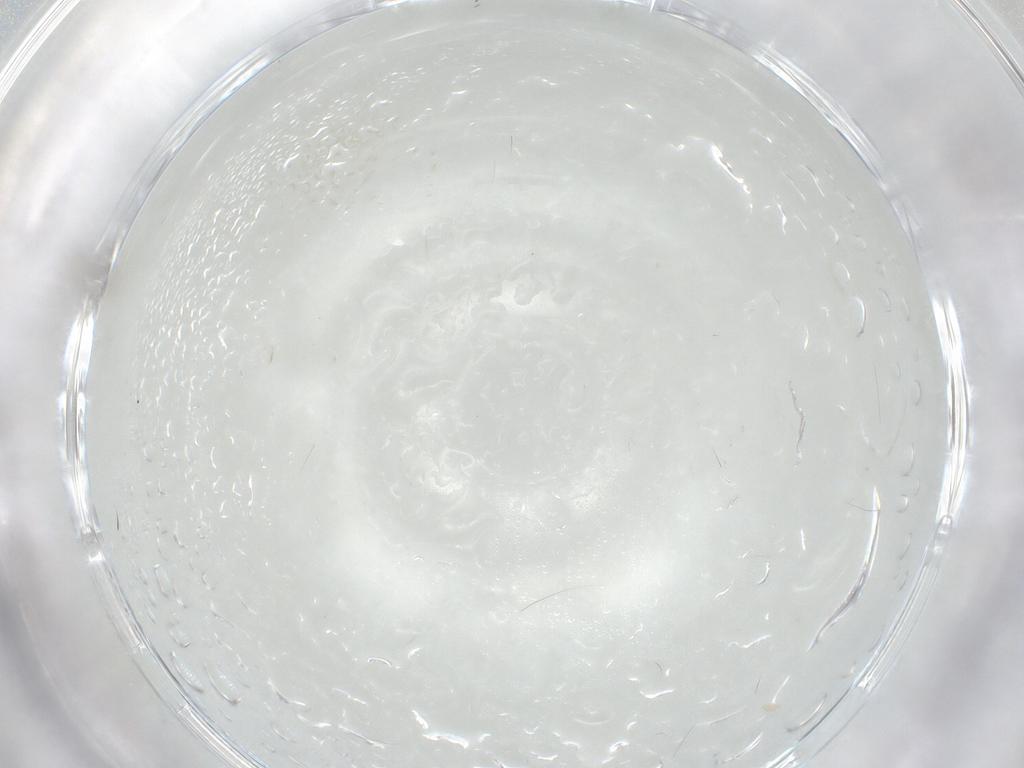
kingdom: Animalia
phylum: Arthropoda
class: Insecta
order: Diptera
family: Cecidomyiidae
